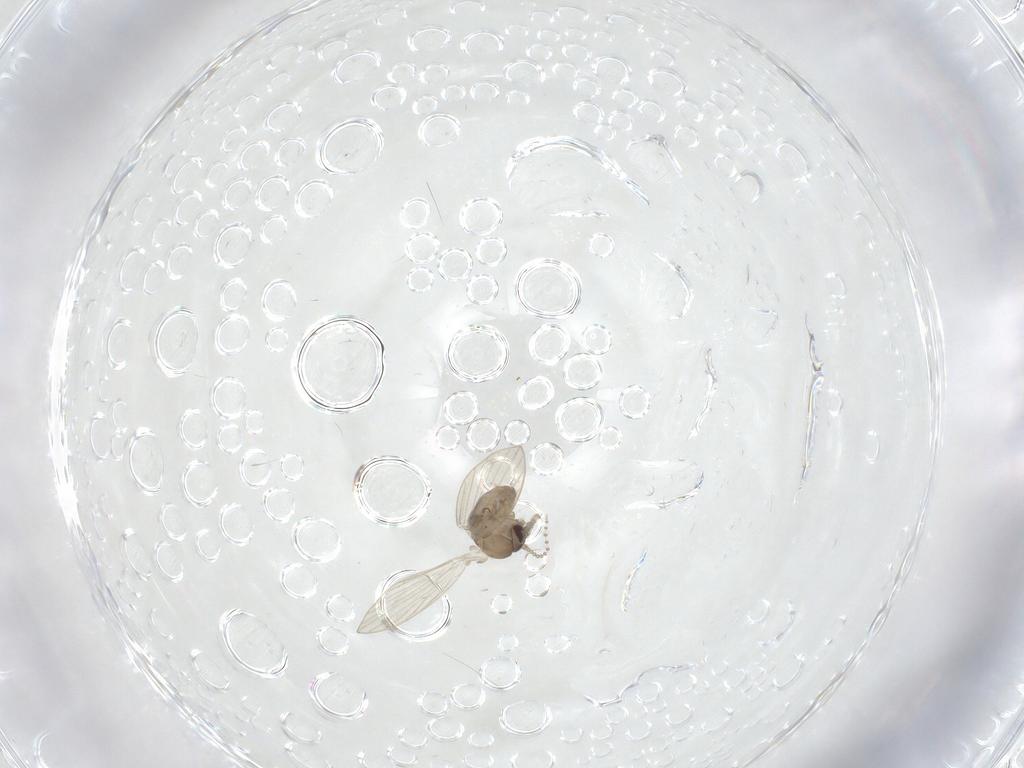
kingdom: Animalia
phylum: Arthropoda
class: Insecta
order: Diptera
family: Ceratopogonidae
